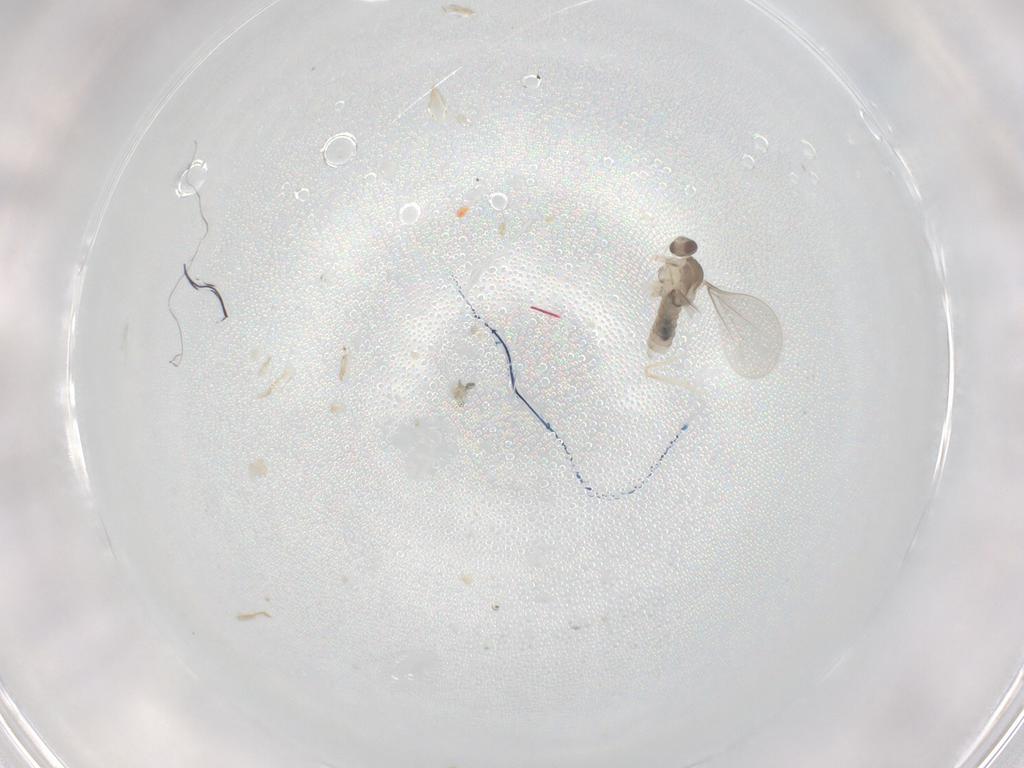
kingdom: Animalia
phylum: Arthropoda
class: Insecta
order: Diptera
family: Cecidomyiidae
